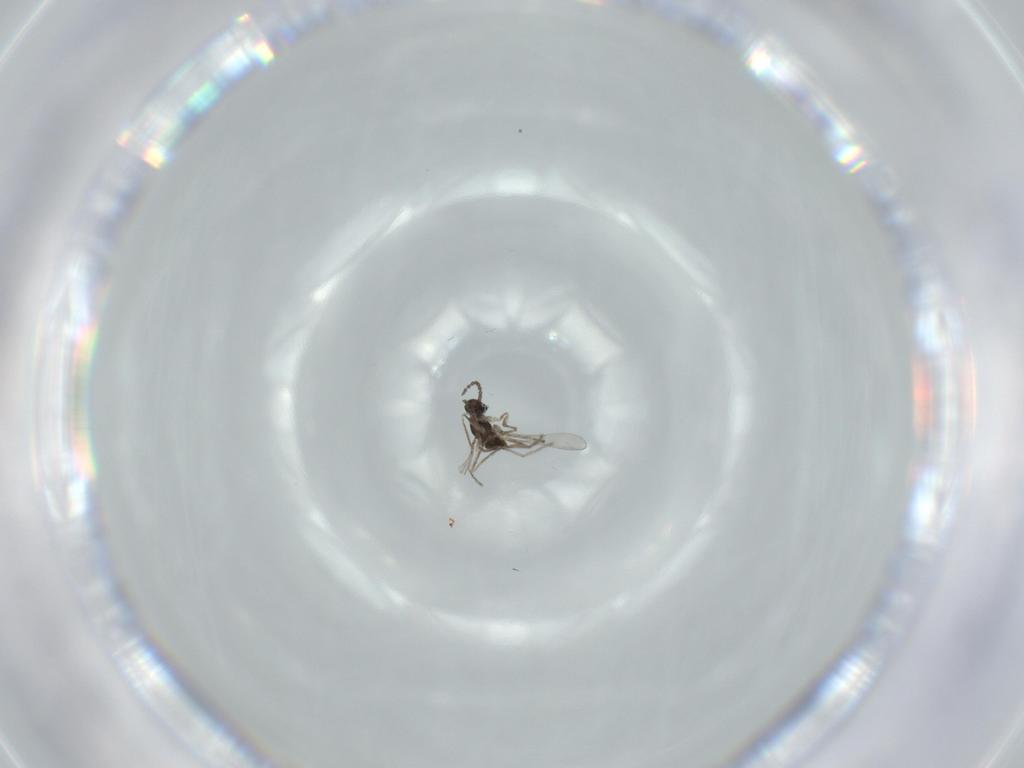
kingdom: Animalia
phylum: Arthropoda
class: Insecta
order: Diptera
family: Cecidomyiidae
